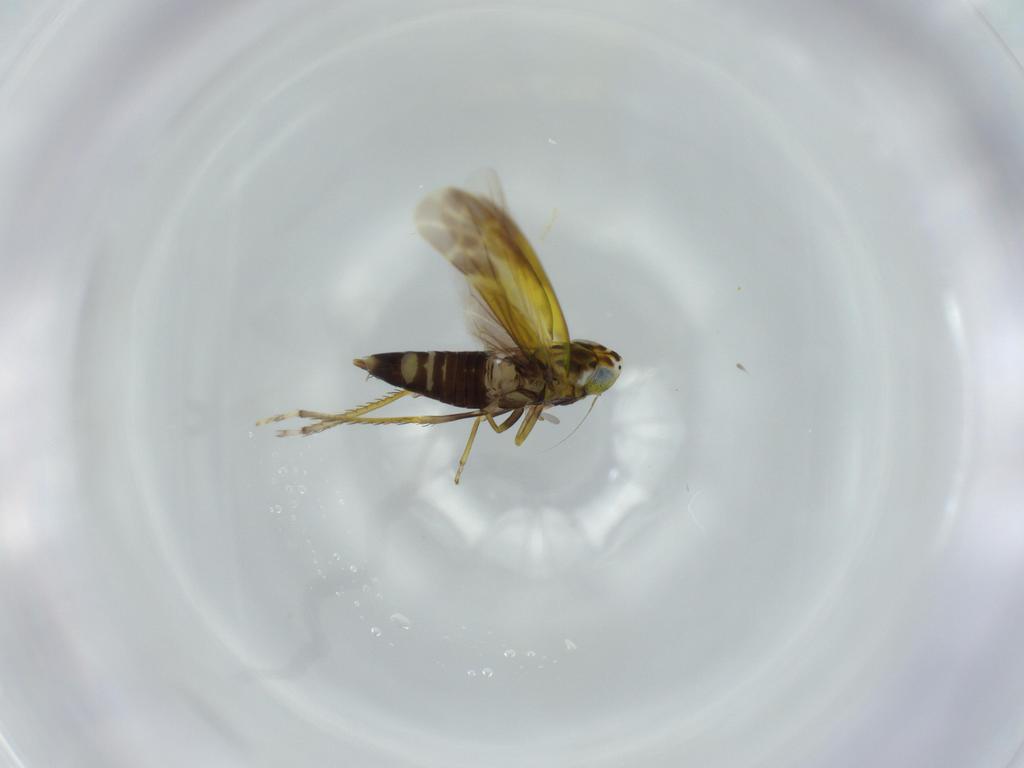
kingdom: Animalia
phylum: Arthropoda
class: Insecta
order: Hemiptera
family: Cicadellidae
